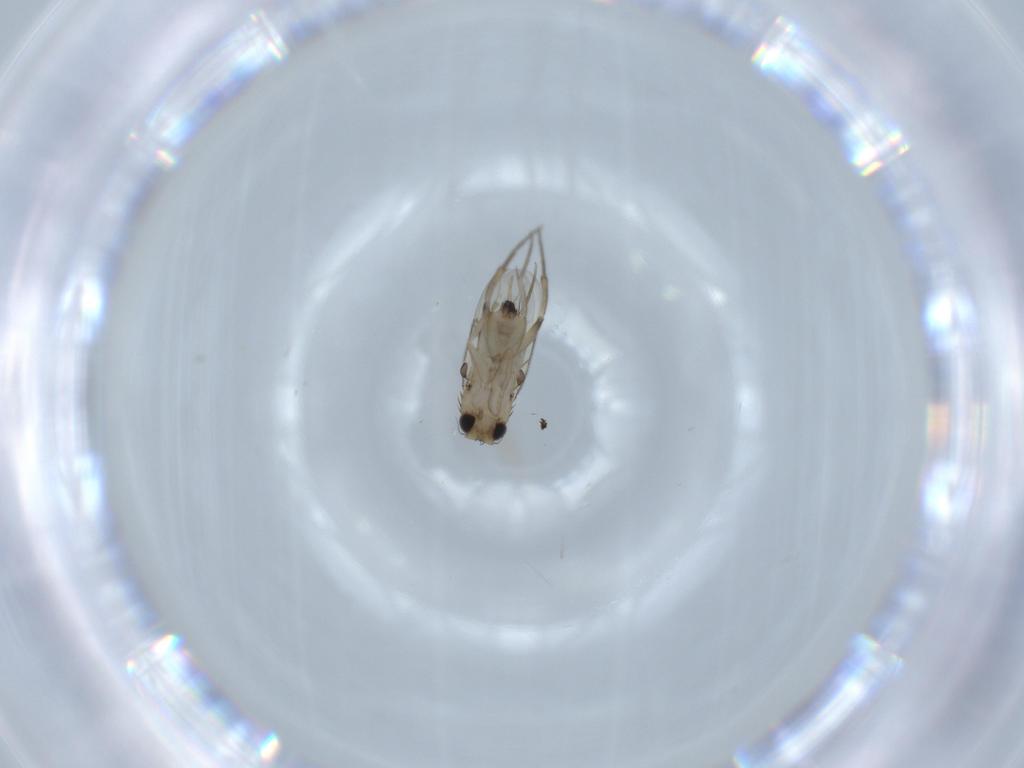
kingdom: Animalia
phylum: Arthropoda
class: Insecta
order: Diptera
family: Phoridae
